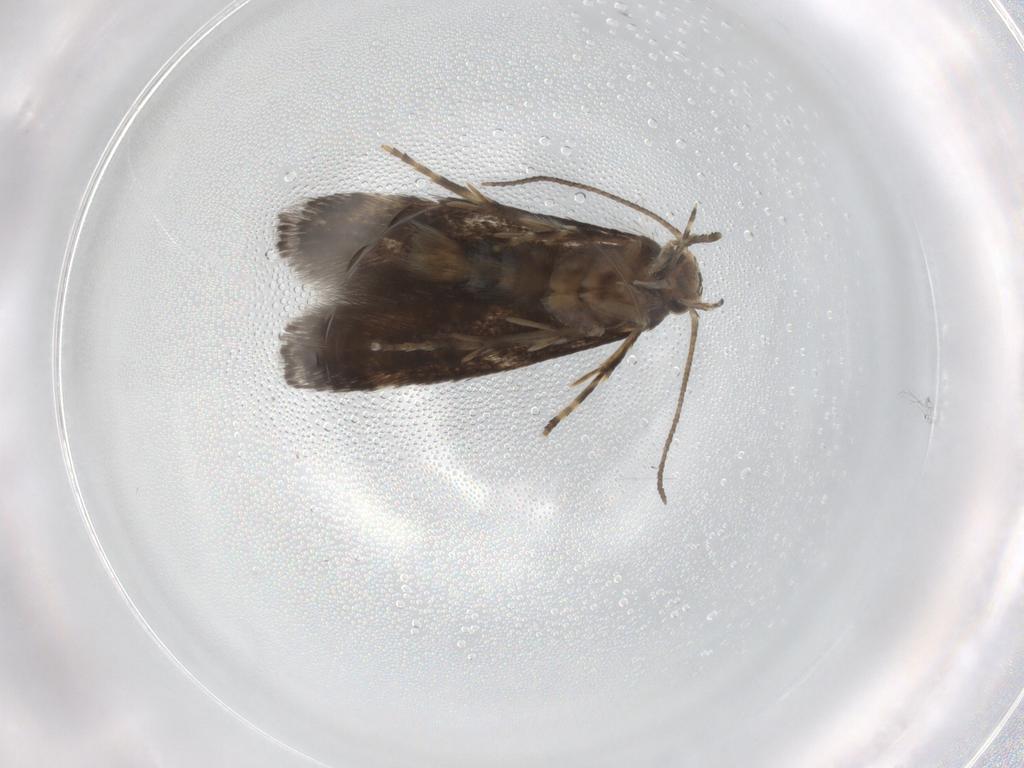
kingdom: Animalia
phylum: Arthropoda
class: Insecta
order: Lepidoptera
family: Elachistidae
